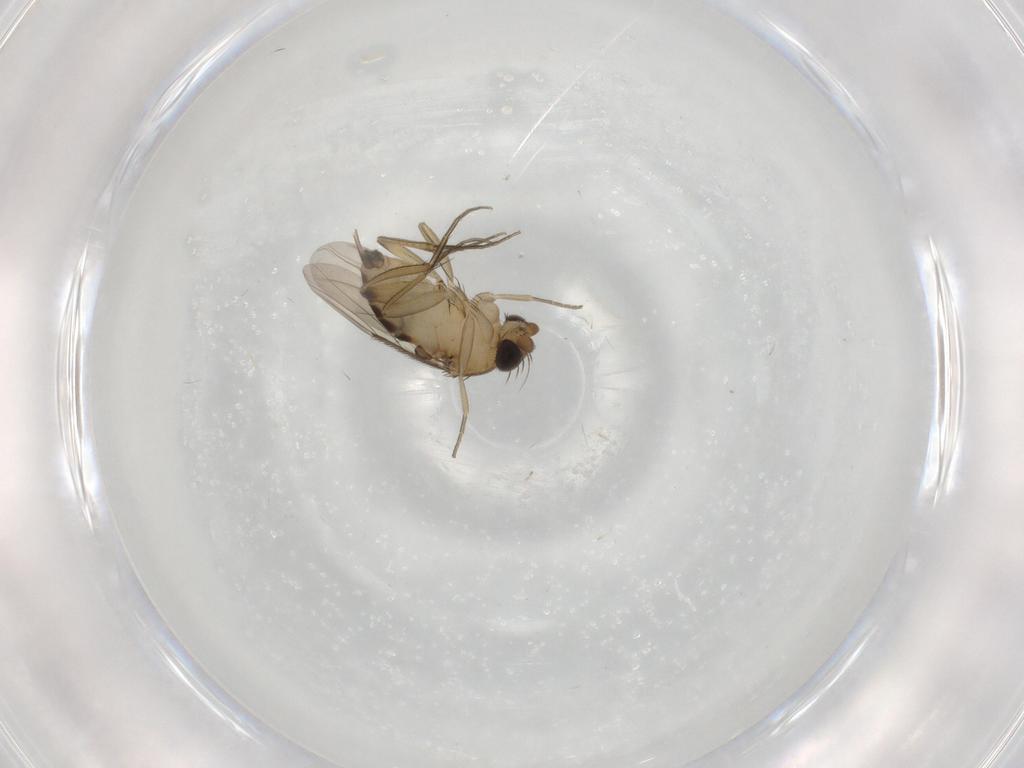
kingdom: Animalia
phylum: Arthropoda
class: Insecta
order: Diptera
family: Phoridae
